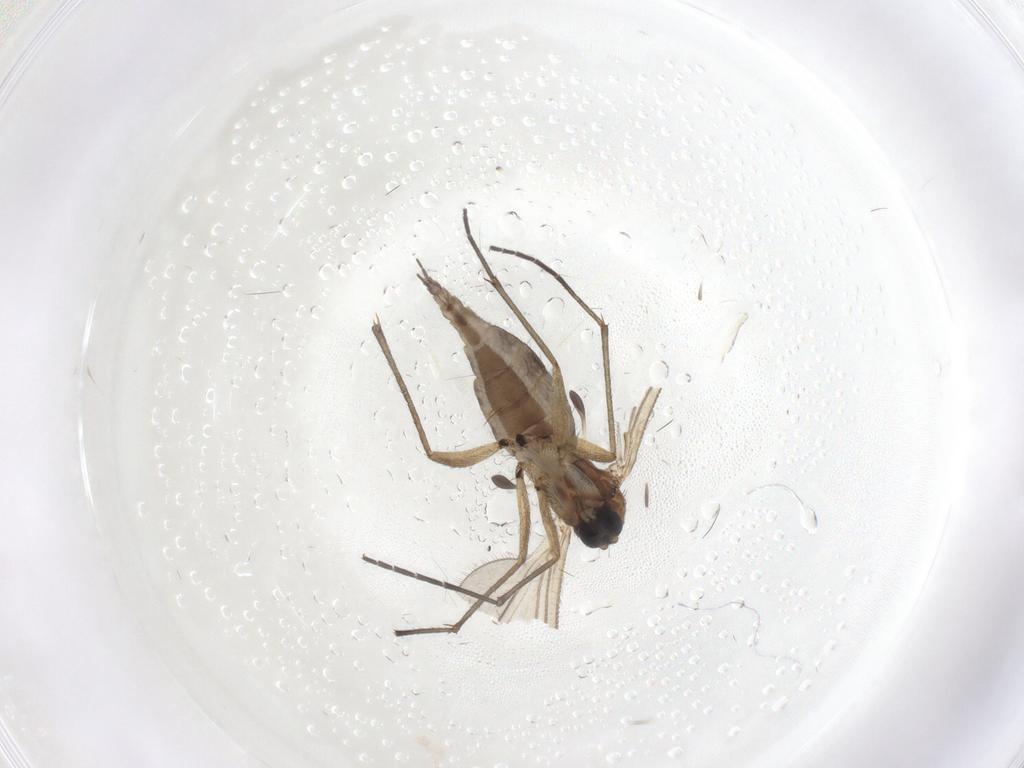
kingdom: Animalia
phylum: Arthropoda
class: Insecta
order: Diptera
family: Sciaridae
